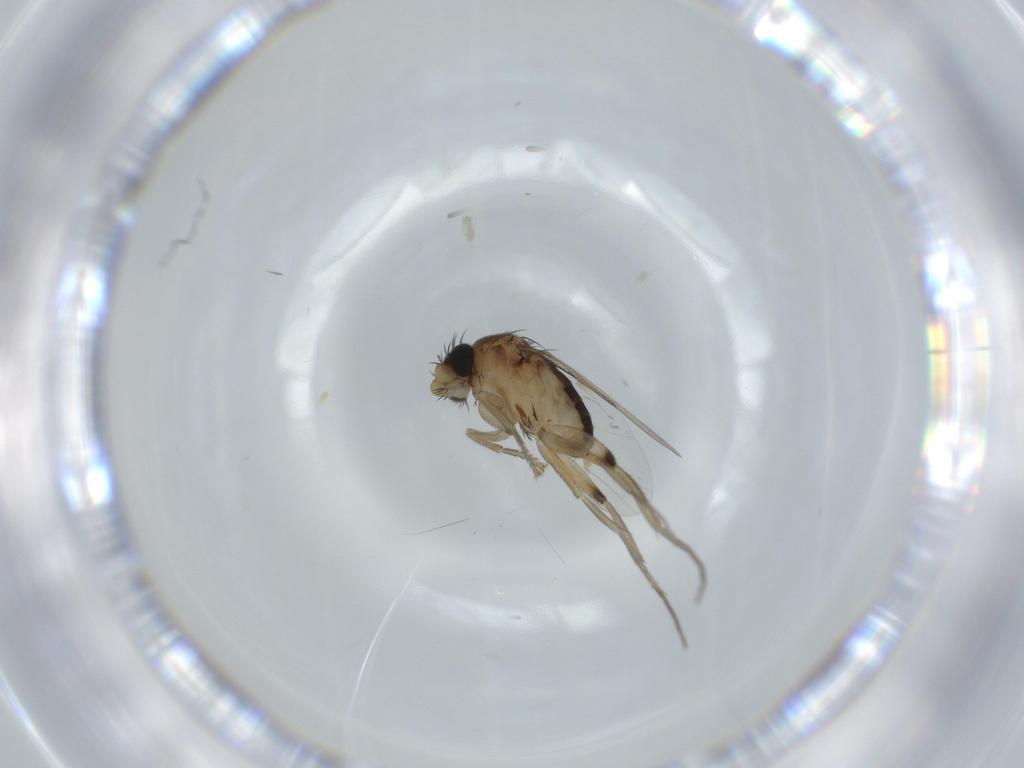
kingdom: Animalia
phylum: Arthropoda
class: Insecta
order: Diptera
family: Phoridae
